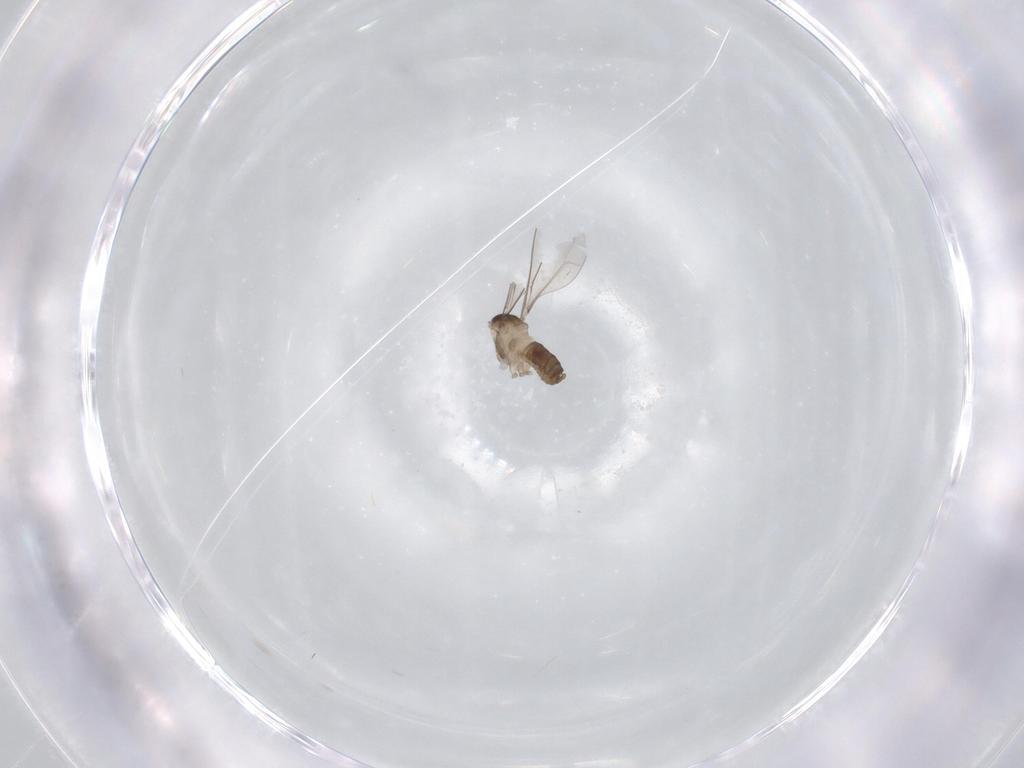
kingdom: Animalia
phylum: Arthropoda
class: Insecta
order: Diptera
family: Cecidomyiidae
